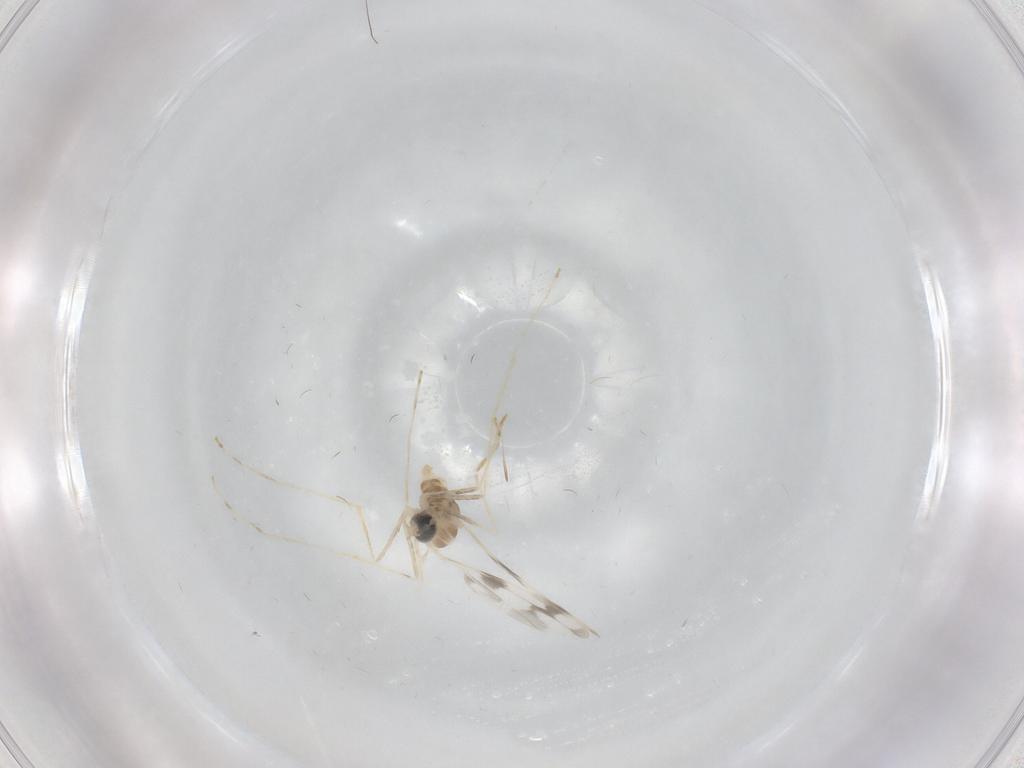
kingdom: Animalia
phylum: Arthropoda
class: Insecta
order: Diptera
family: Cecidomyiidae
